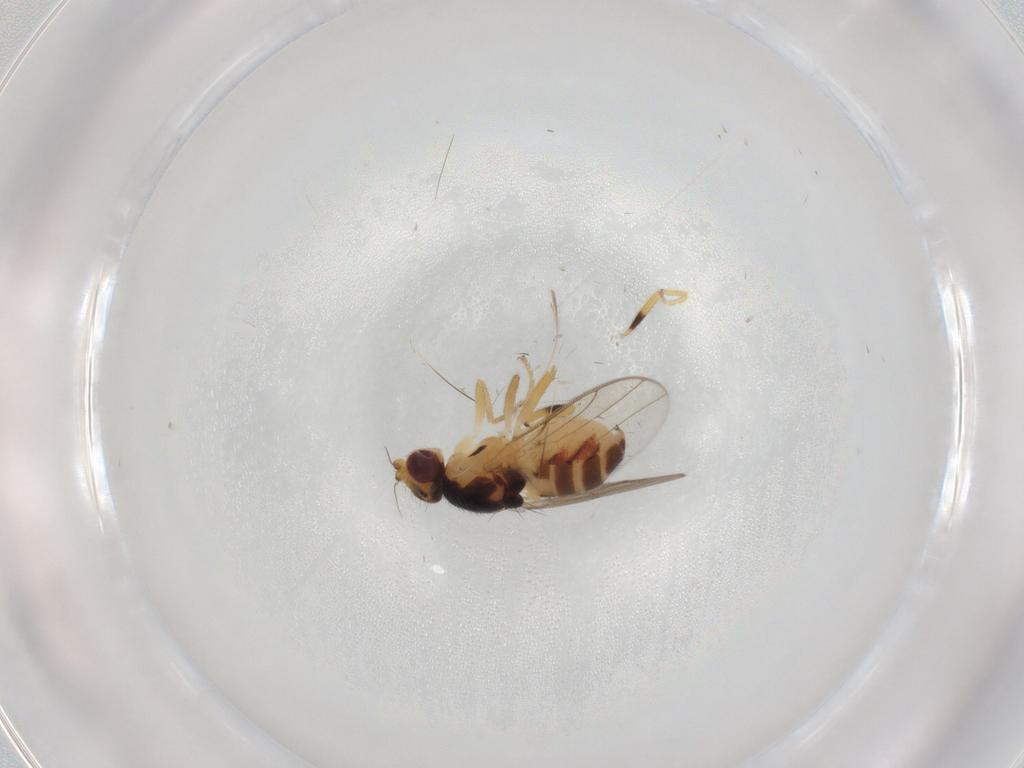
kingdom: Animalia
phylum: Arthropoda
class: Insecta
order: Diptera
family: Chloropidae
